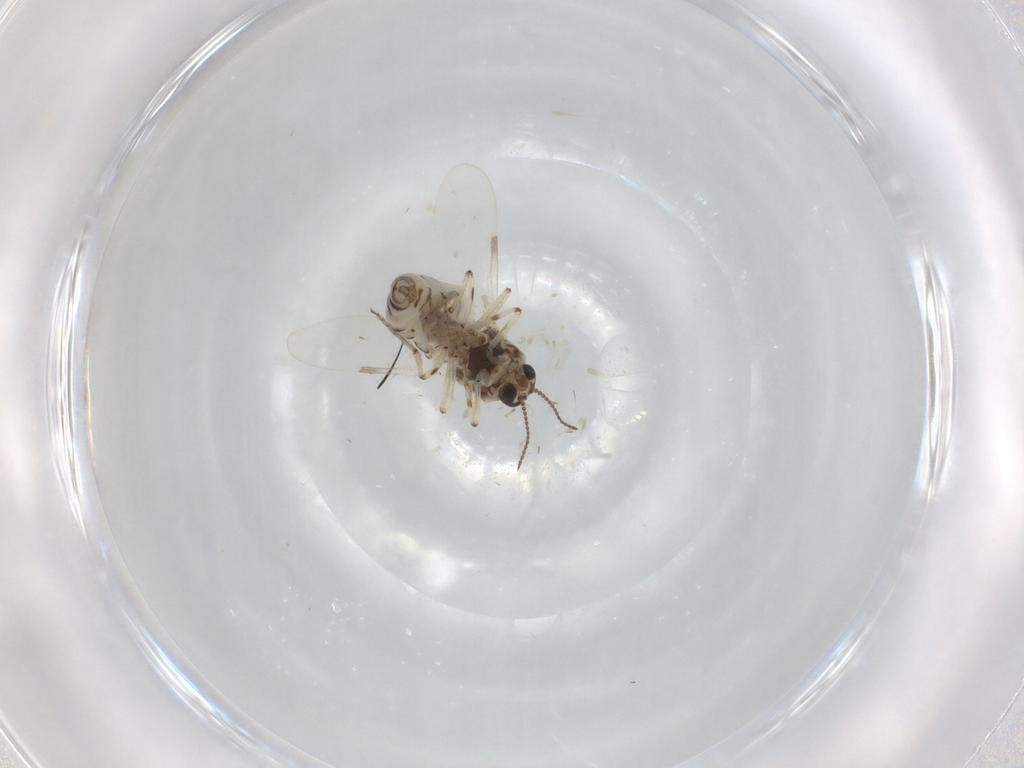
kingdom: Animalia
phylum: Arthropoda
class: Insecta
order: Diptera
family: Ceratopogonidae
